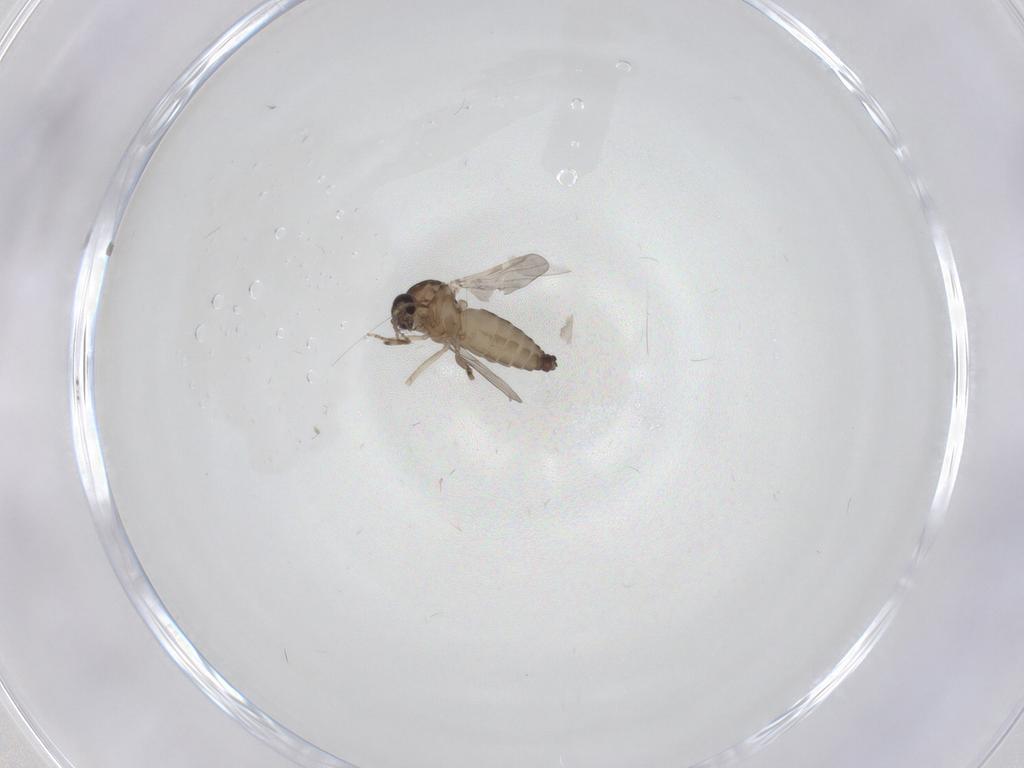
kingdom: Animalia
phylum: Arthropoda
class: Insecta
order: Diptera
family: Ceratopogonidae
